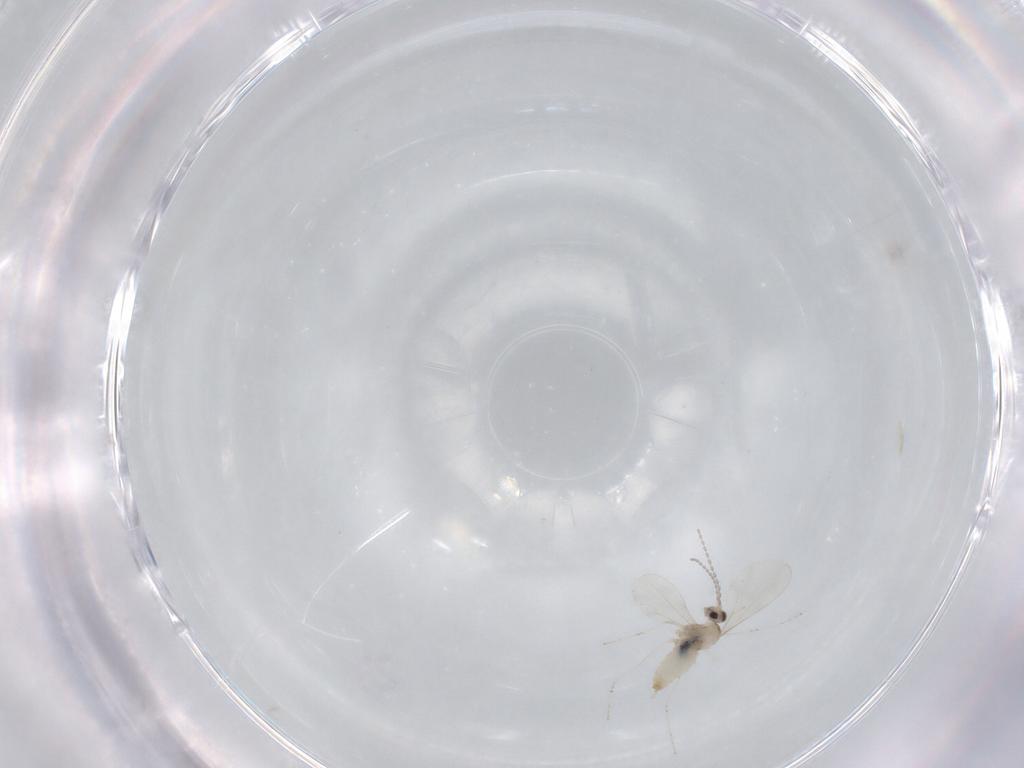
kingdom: Animalia
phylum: Arthropoda
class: Insecta
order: Diptera
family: Cecidomyiidae
